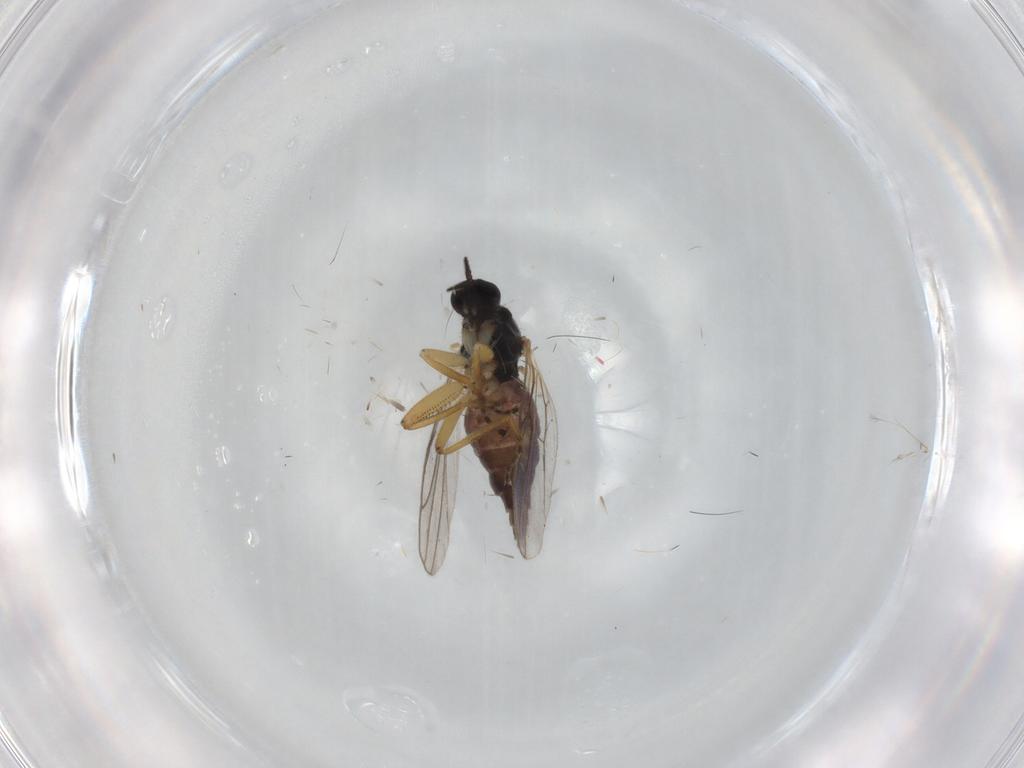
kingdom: Animalia
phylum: Arthropoda
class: Insecta
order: Diptera
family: Hybotidae
